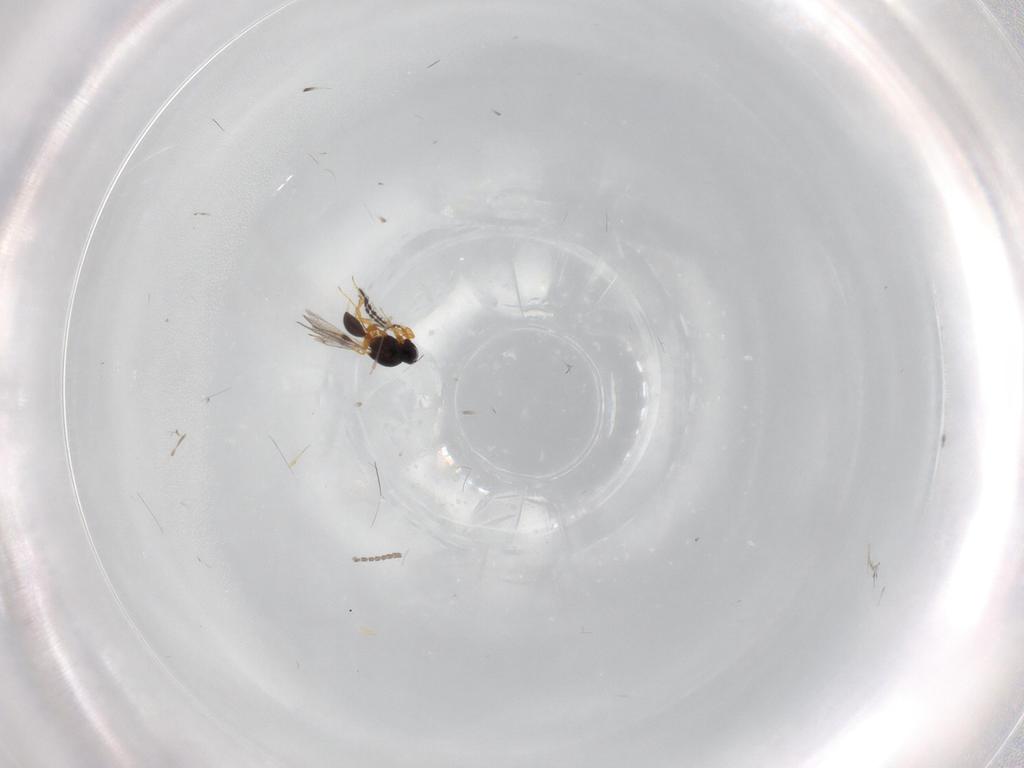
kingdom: Animalia
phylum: Arthropoda
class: Insecta
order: Hymenoptera
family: Platygastridae
